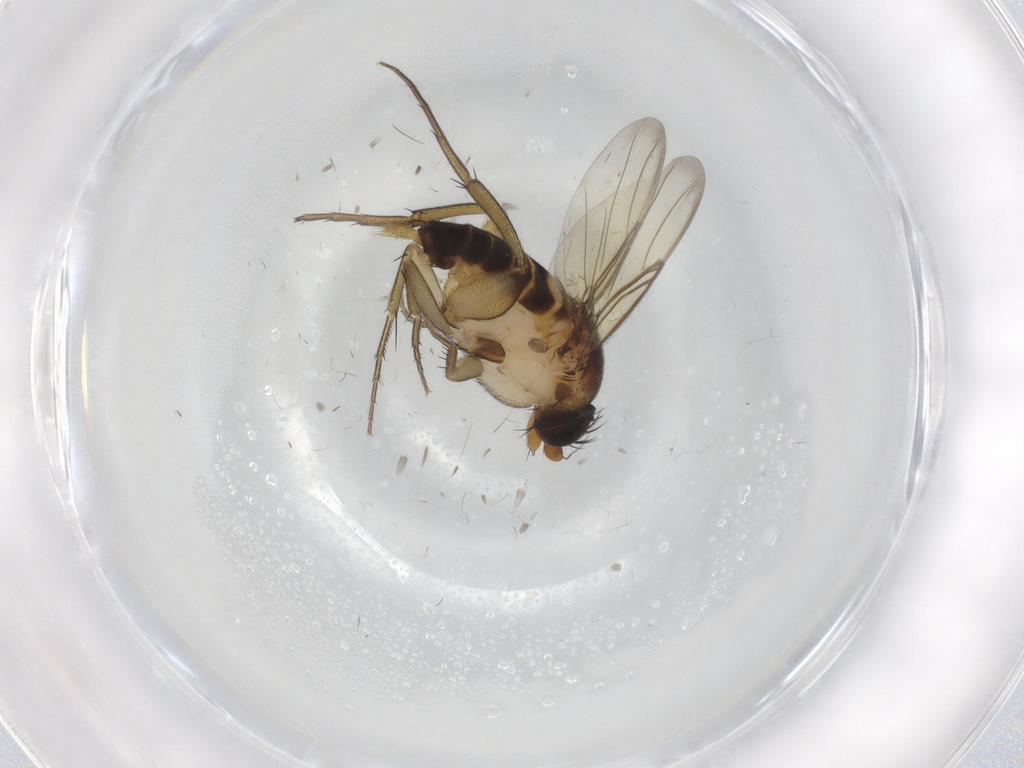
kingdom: Animalia
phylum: Arthropoda
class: Insecta
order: Diptera
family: Phoridae
